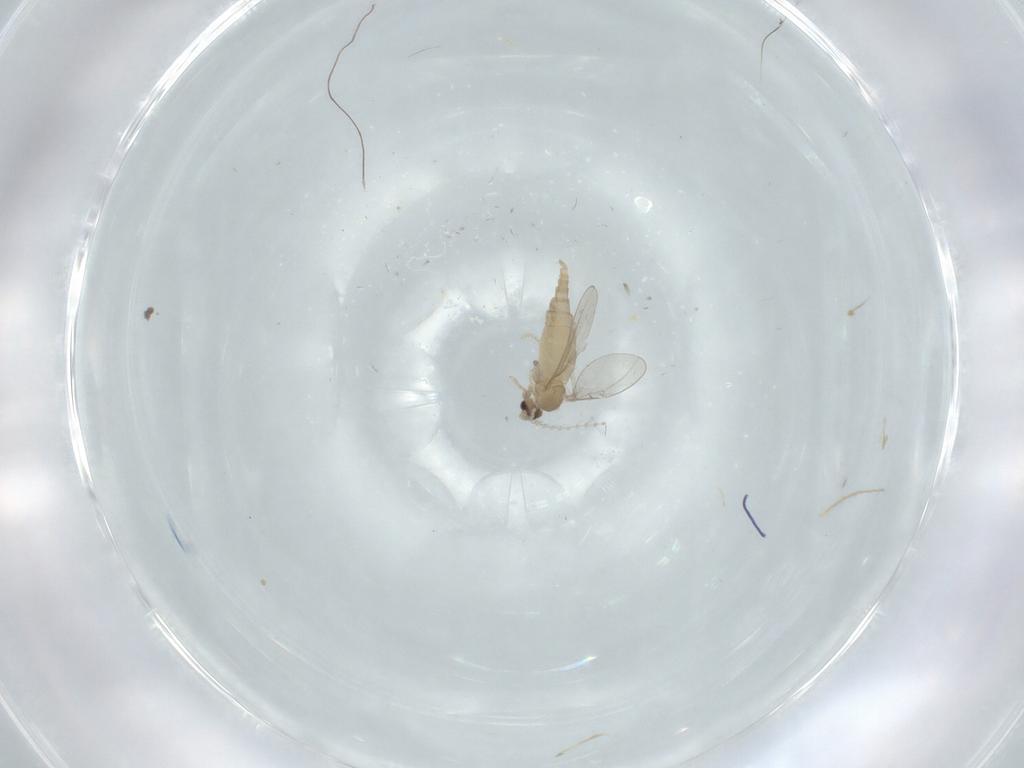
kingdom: Animalia
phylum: Arthropoda
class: Insecta
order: Diptera
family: Cecidomyiidae
